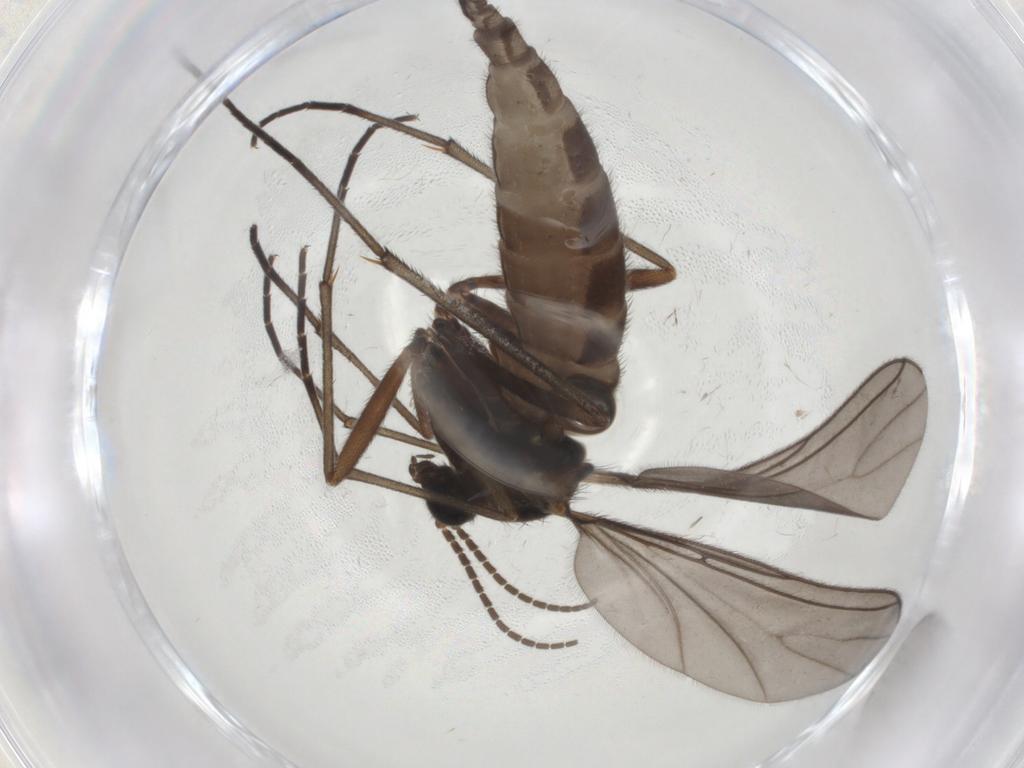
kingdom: Animalia
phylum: Arthropoda
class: Insecta
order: Diptera
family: Sciaridae
